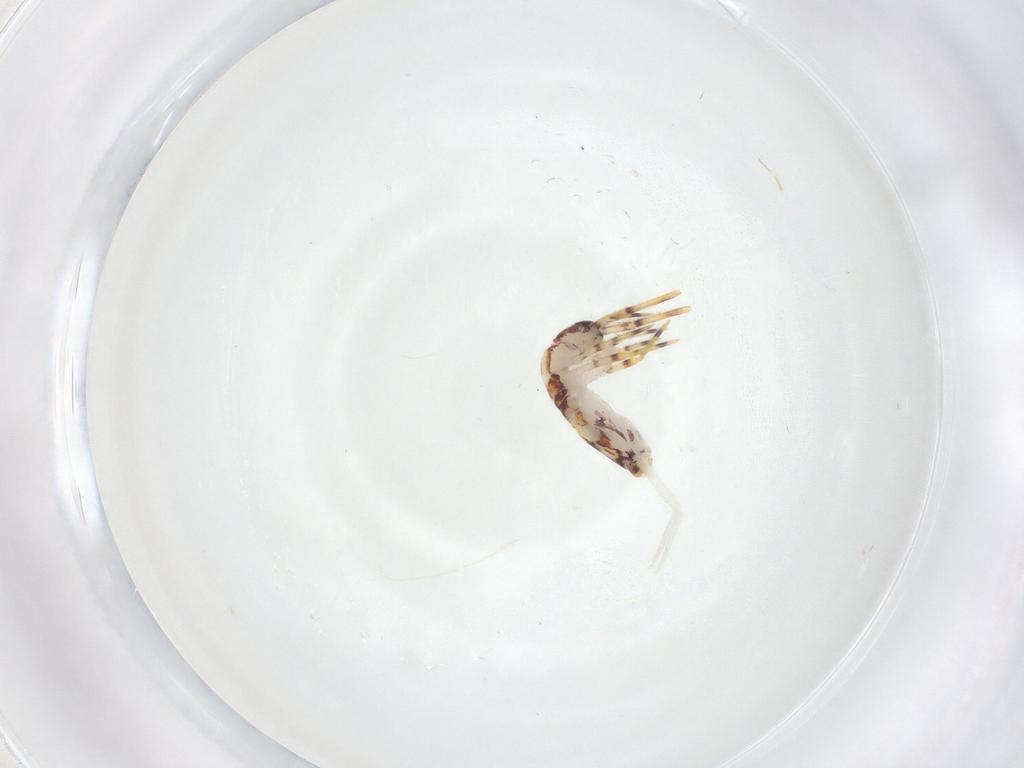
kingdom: Animalia
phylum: Arthropoda
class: Collembola
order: Entomobryomorpha
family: Entomobryidae
